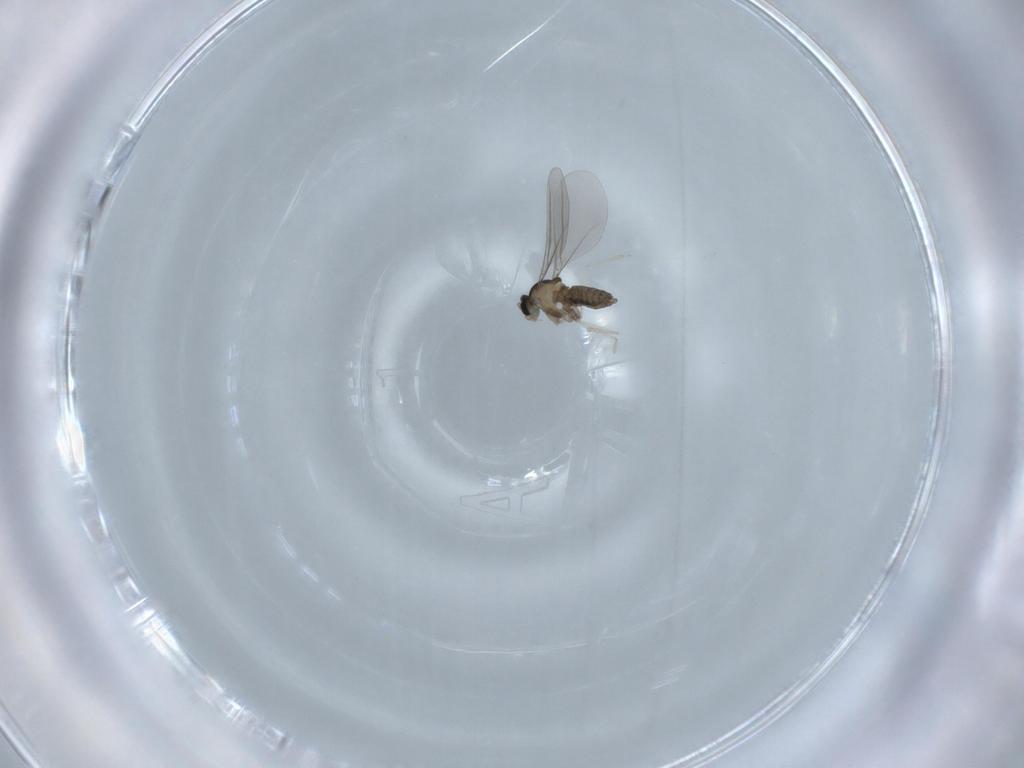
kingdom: Animalia
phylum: Arthropoda
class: Insecta
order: Diptera
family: Cecidomyiidae
